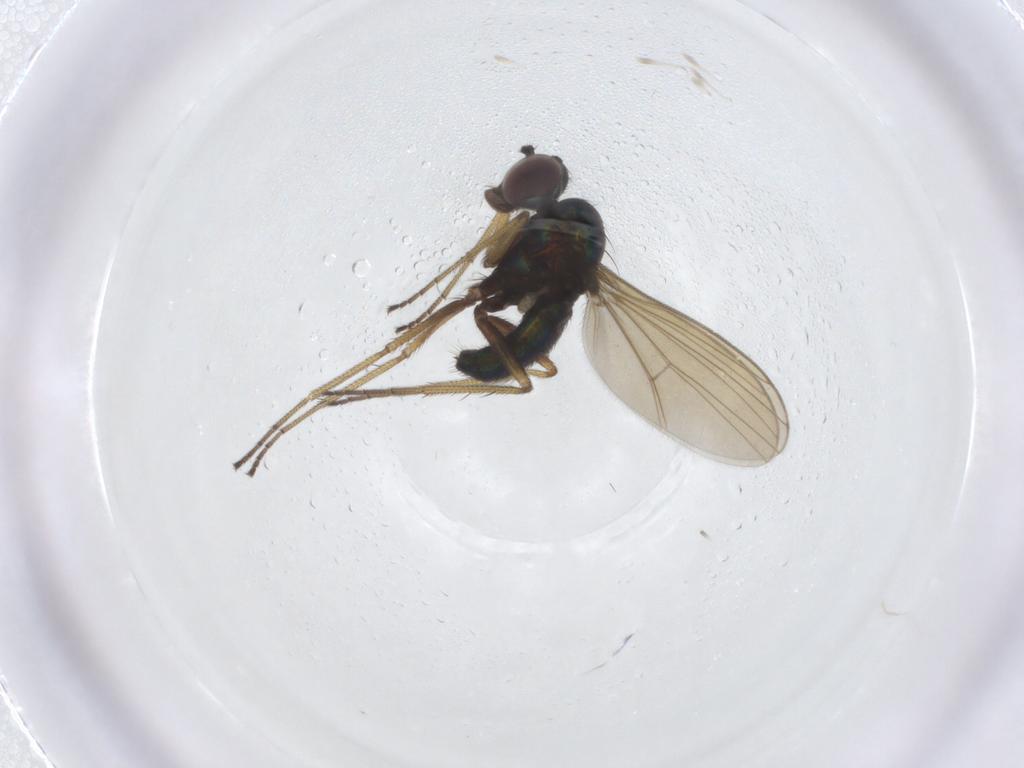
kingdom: Animalia
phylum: Arthropoda
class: Insecta
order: Diptera
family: Dolichopodidae
